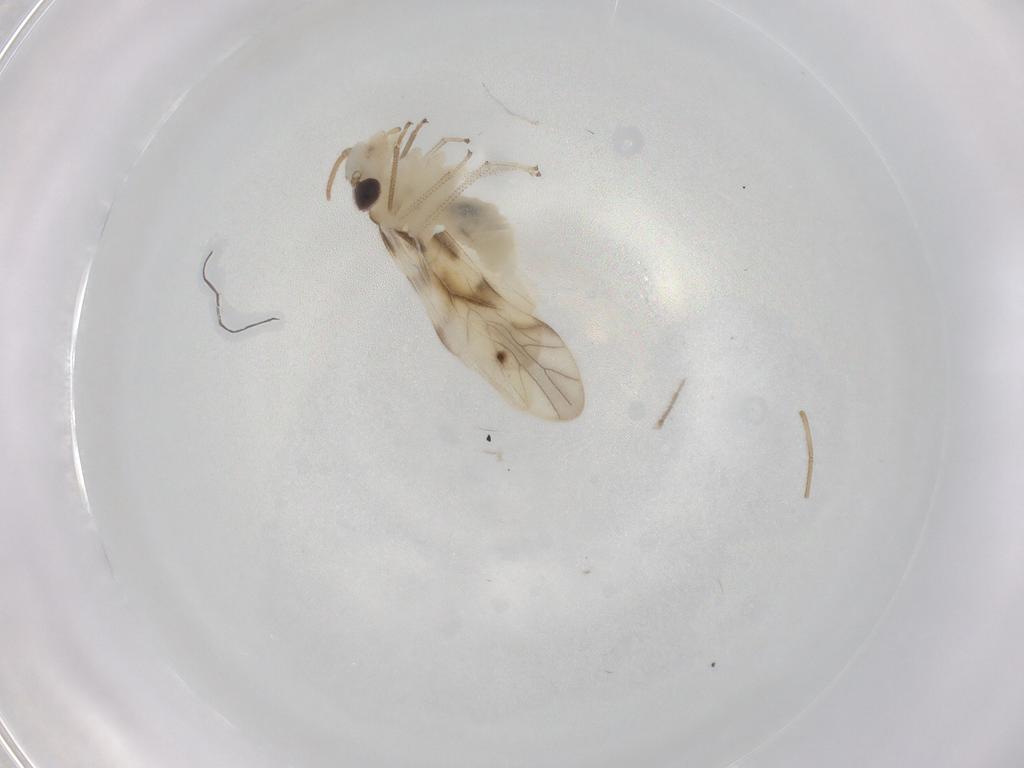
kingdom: Animalia
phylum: Arthropoda
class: Insecta
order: Psocodea
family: Caeciliusidae
